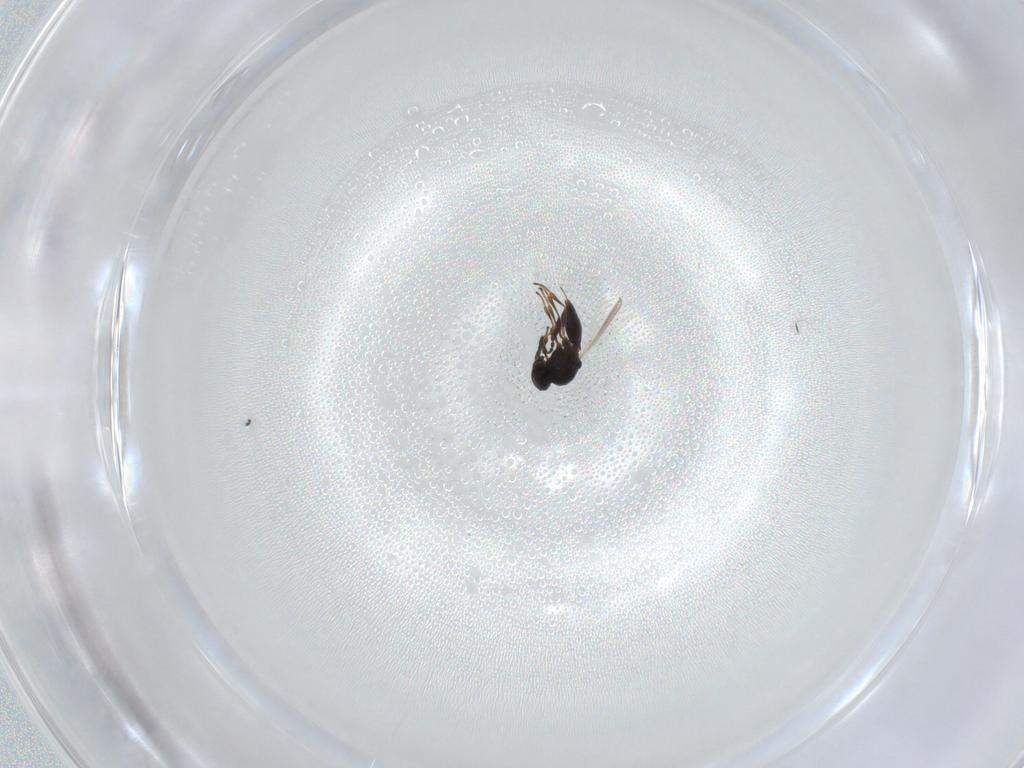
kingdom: Animalia
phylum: Arthropoda
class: Insecta
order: Hymenoptera
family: Platygastridae
